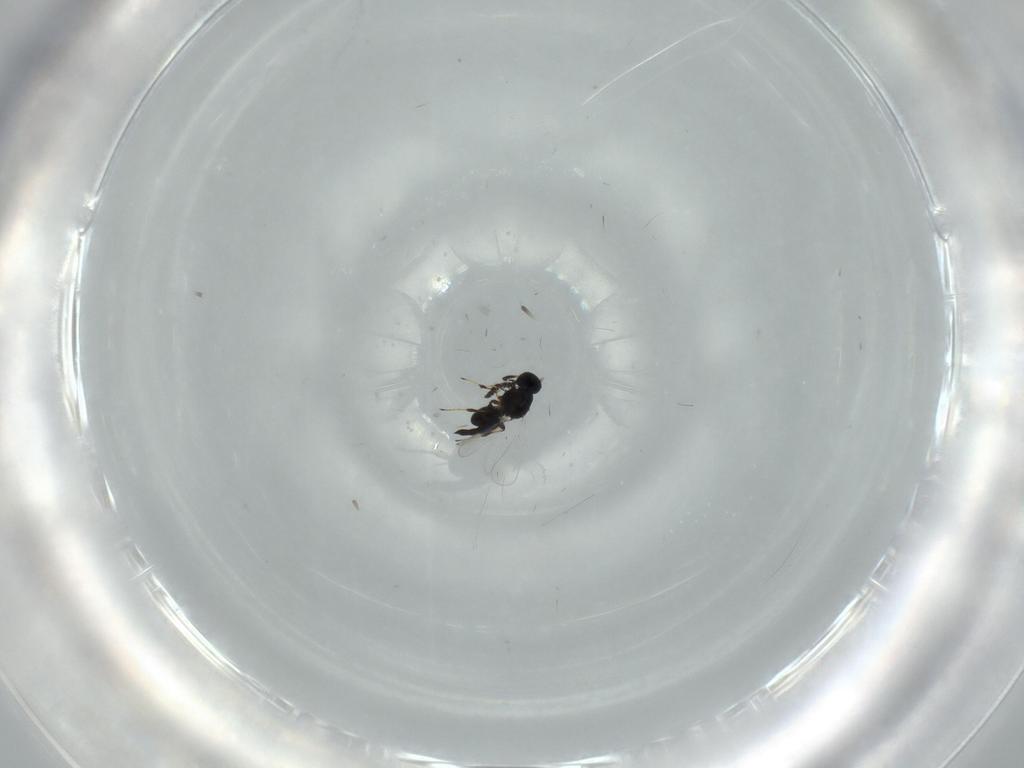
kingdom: Animalia
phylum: Arthropoda
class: Insecta
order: Hymenoptera
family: Platygastridae
